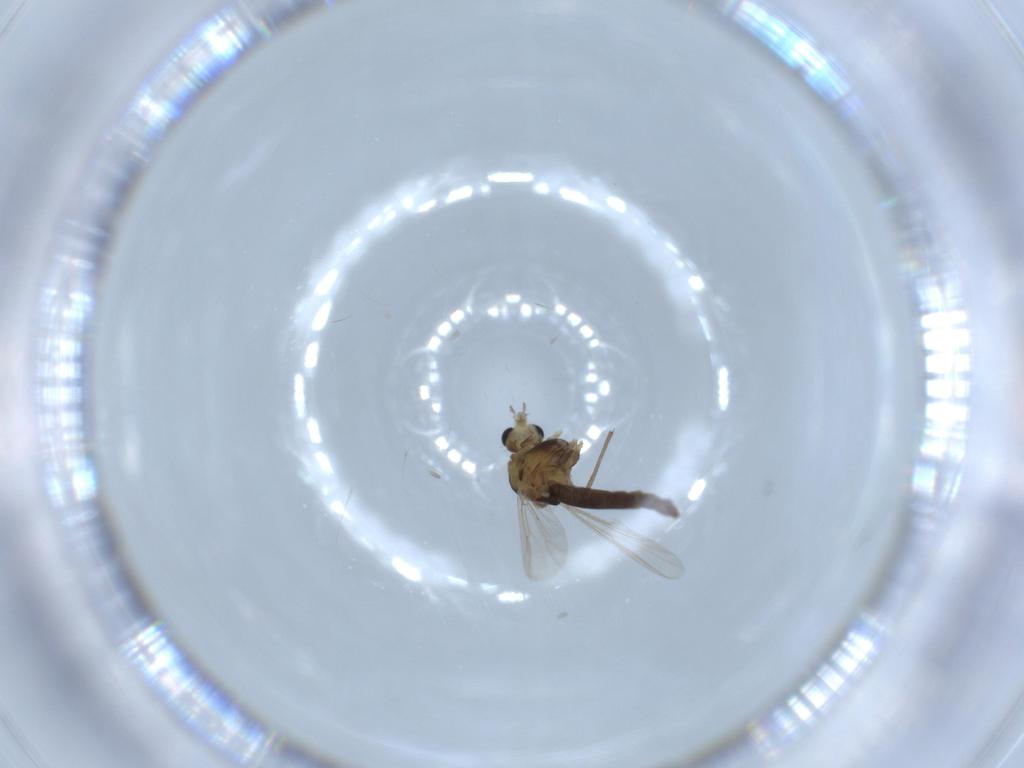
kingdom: Animalia
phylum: Arthropoda
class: Insecta
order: Diptera
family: Chironomidae
